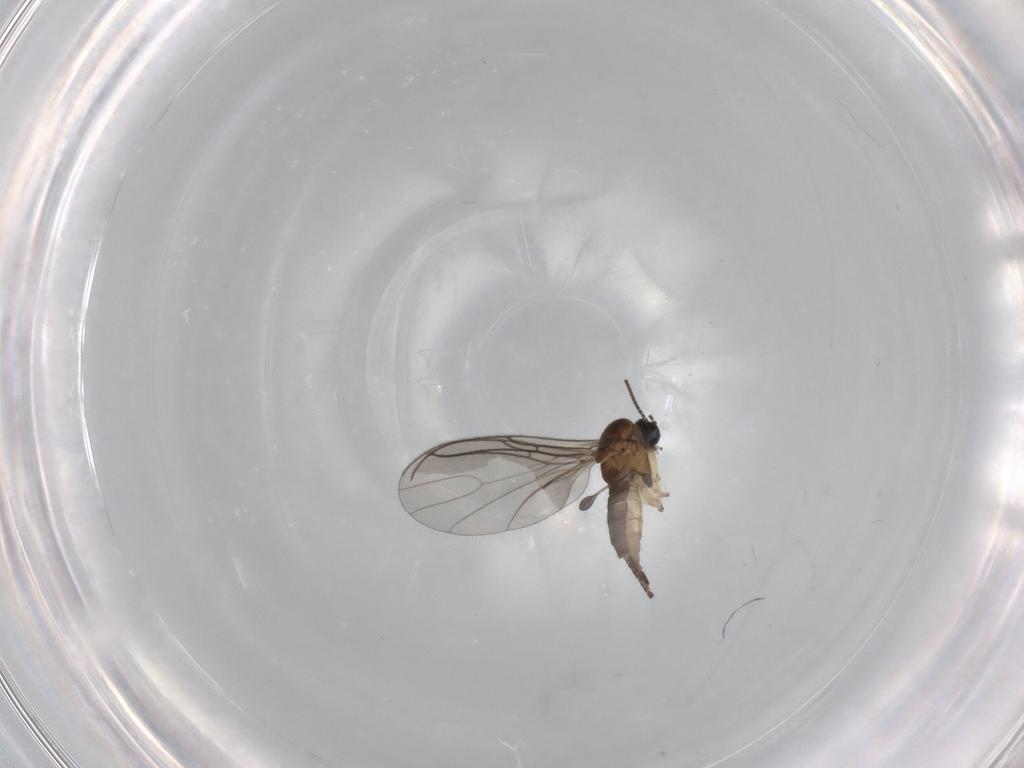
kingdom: Animalia
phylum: Arthropoda
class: Insecta
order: Diptera
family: Sciaridae
